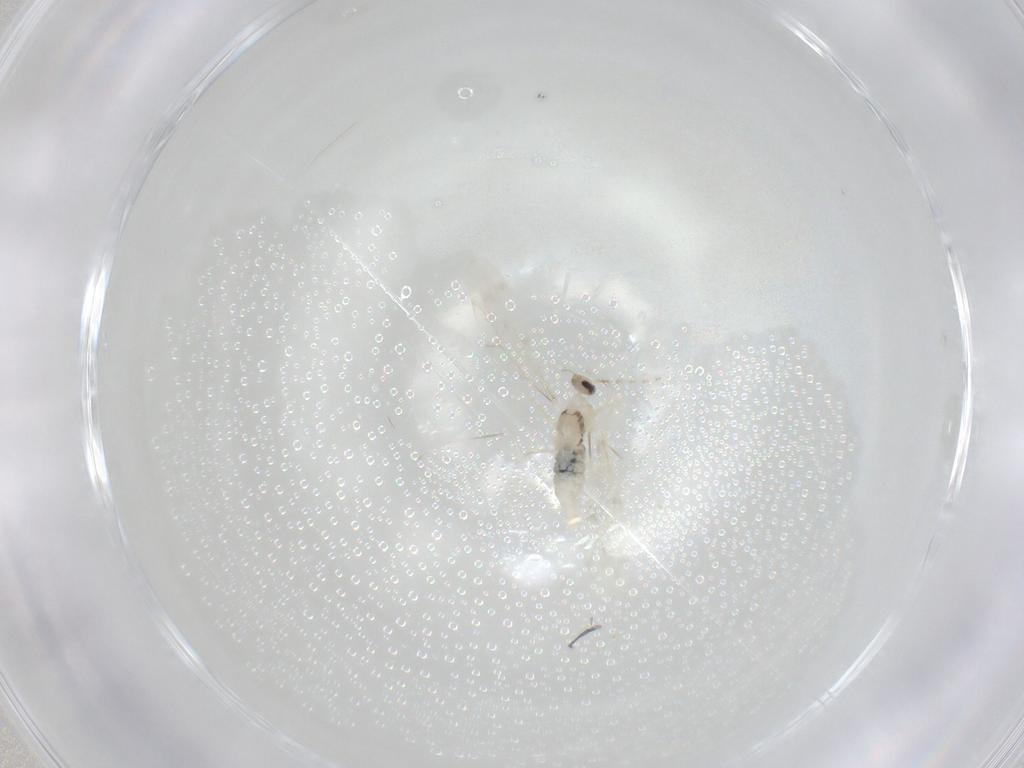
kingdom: Animalia
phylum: Arthropoda
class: Insecta
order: Diptera
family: Cecidomyiidae
